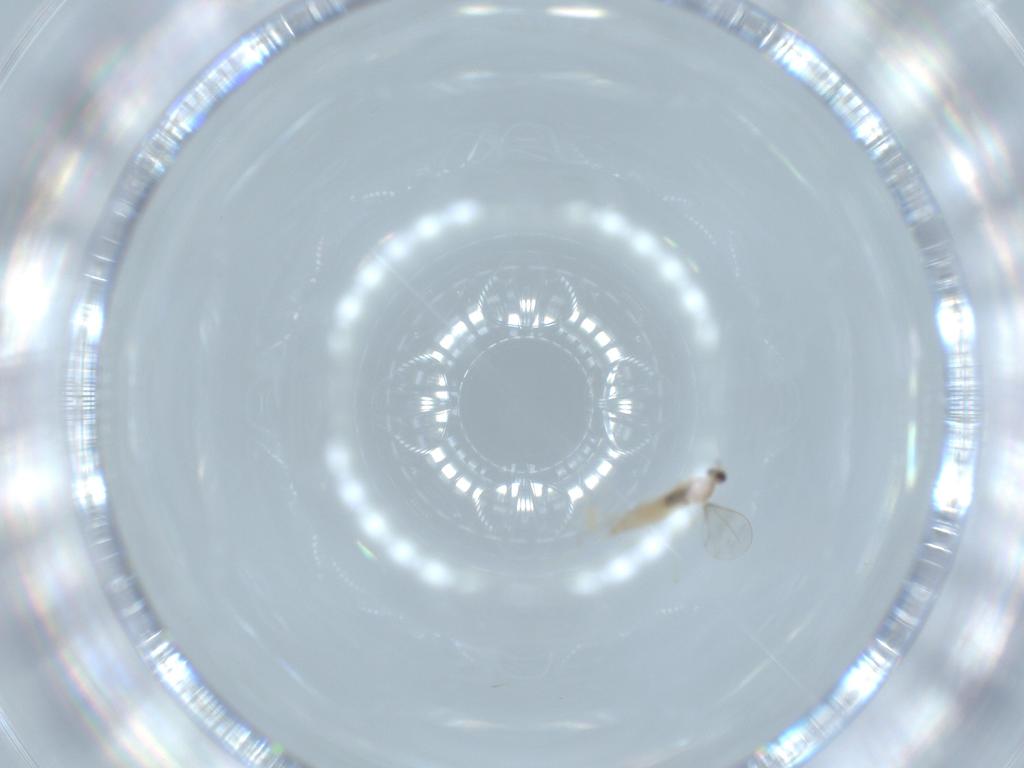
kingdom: Animalia
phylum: Arthropoda
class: Insecta
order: Diptera
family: Cecidomyiidae
